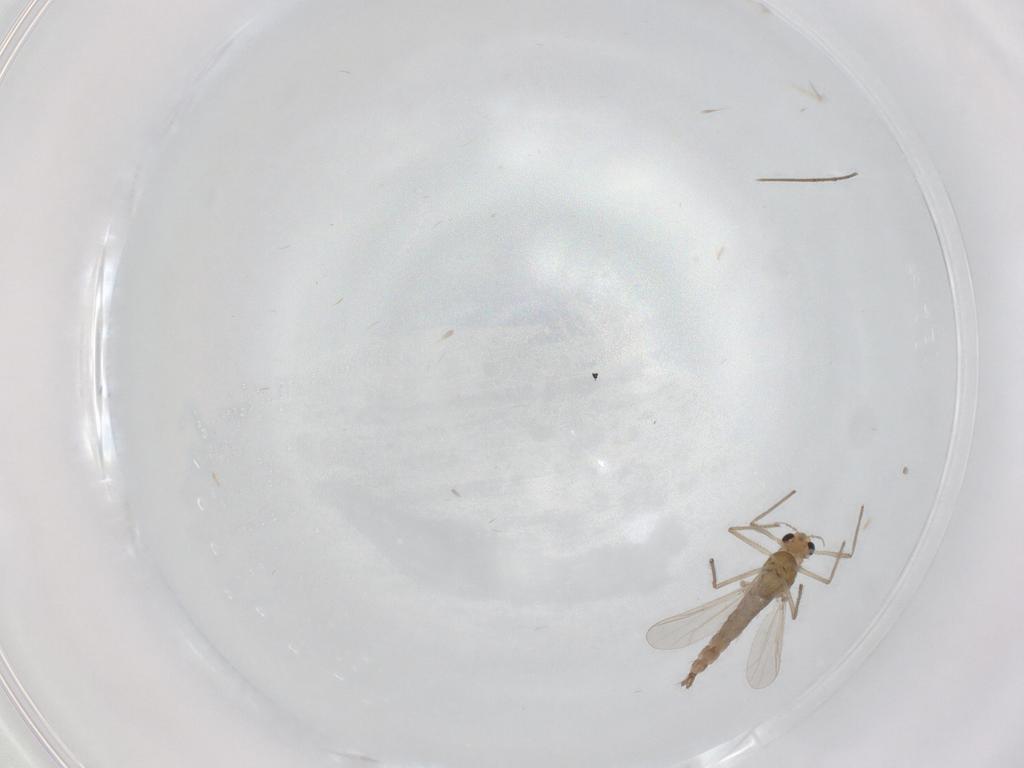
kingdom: Animalia
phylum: Arthropoda
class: Insecta
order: Diptera
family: Chironomidae
